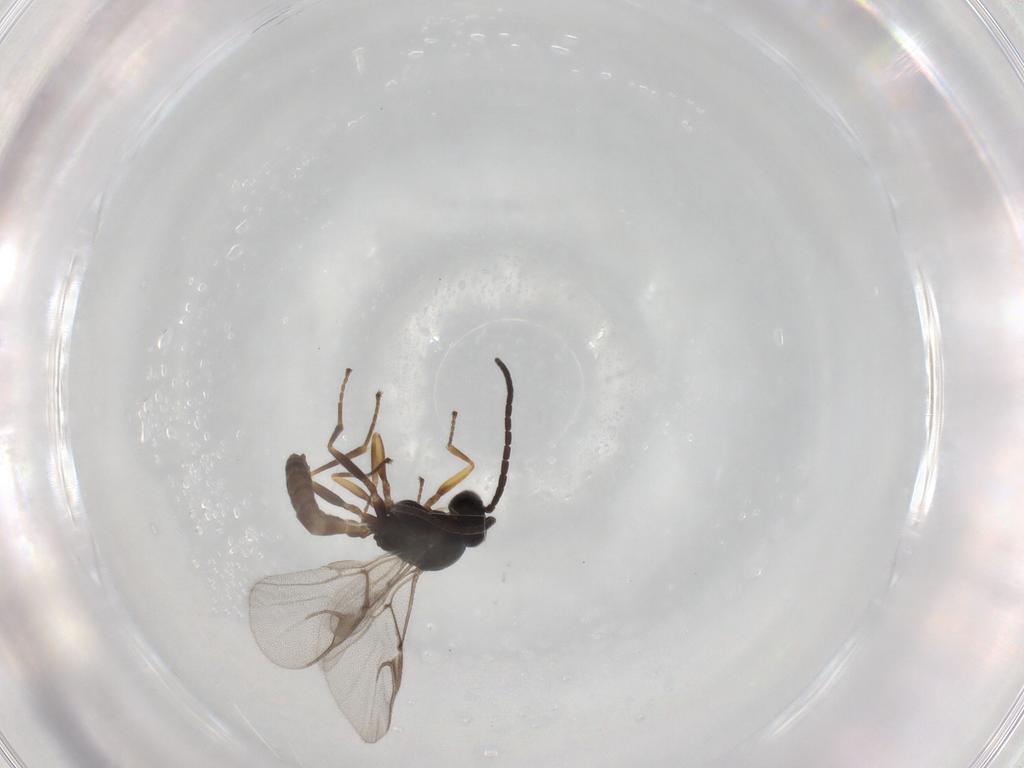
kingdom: Animalia
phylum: Arthropoda
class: Insecta
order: Hymenoptera
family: Braconidae
